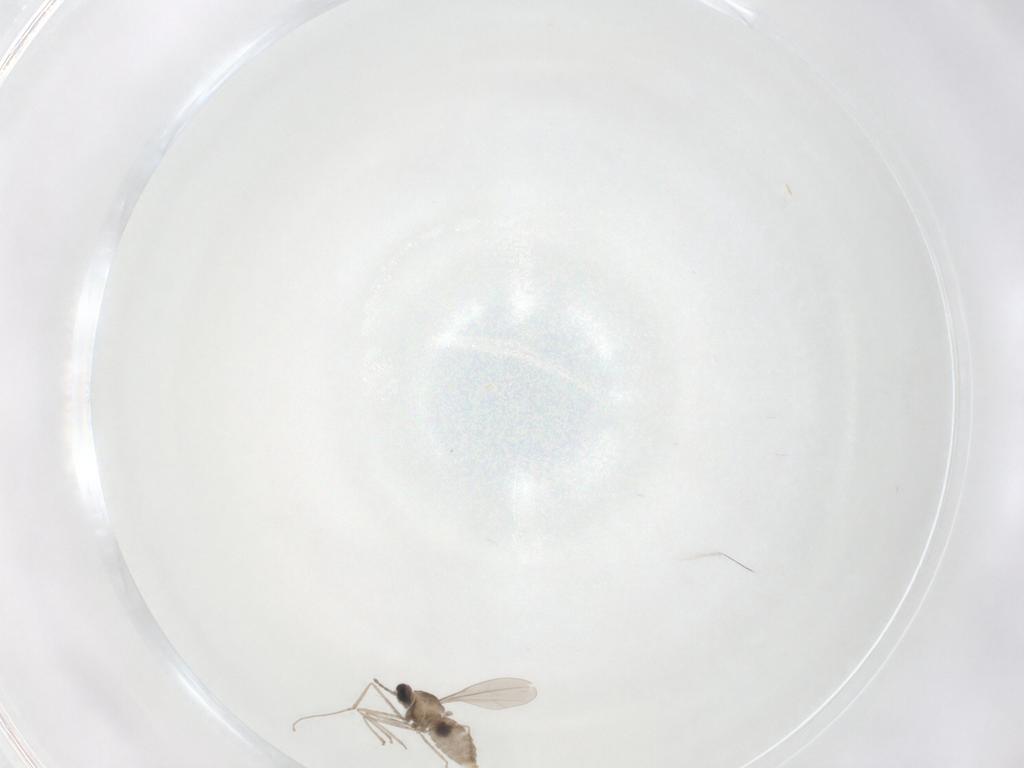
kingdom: Animalia
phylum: Arthropoda
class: Insecta
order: Diptera
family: Cecidomyiidae
